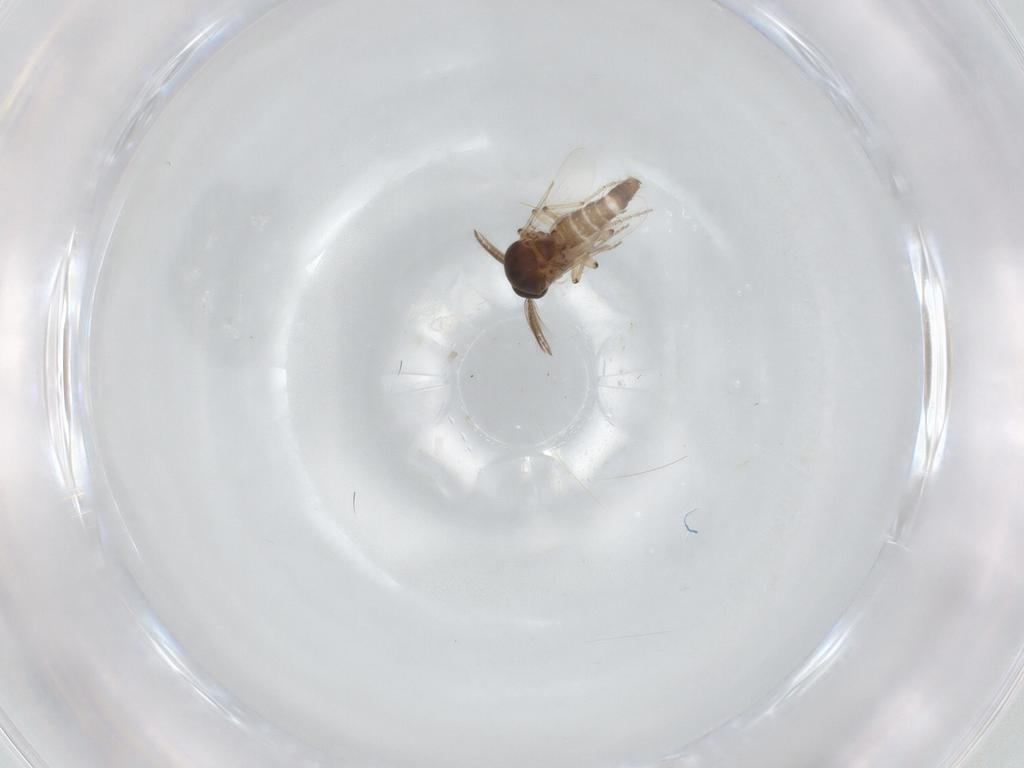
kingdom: Animalia
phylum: Arthropoda
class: Insecta
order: Diptera
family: Ceratopogonidae
